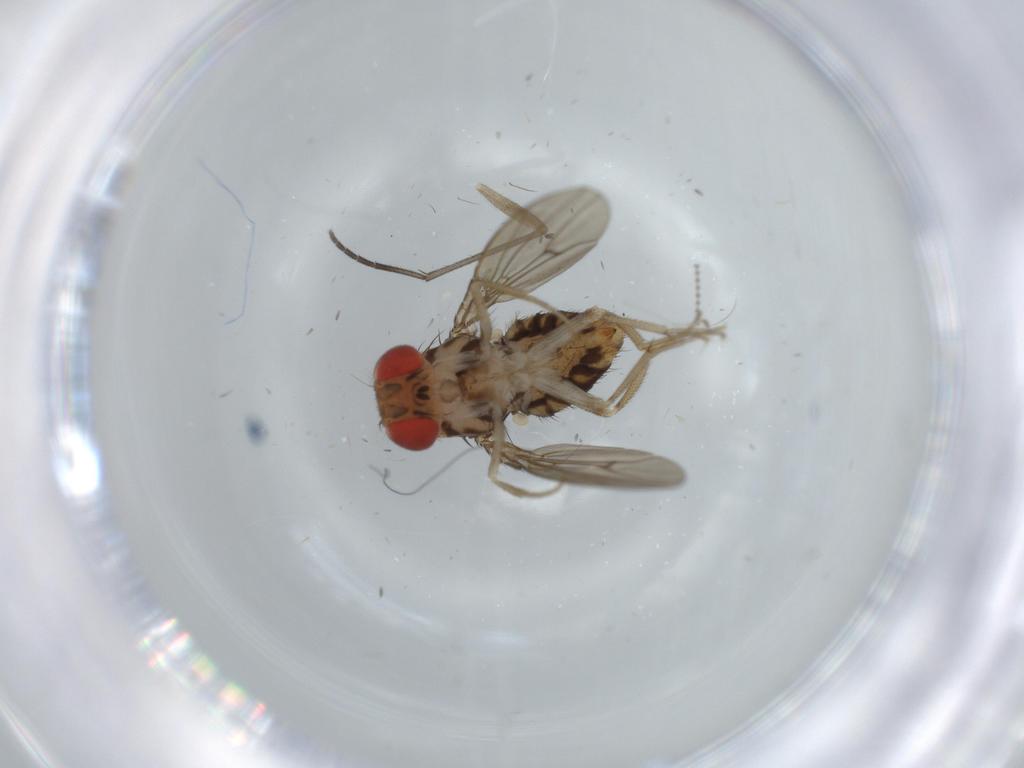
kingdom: Animalia
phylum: Arthropoda
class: Insecta
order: Diptera
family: Drosophilidae
